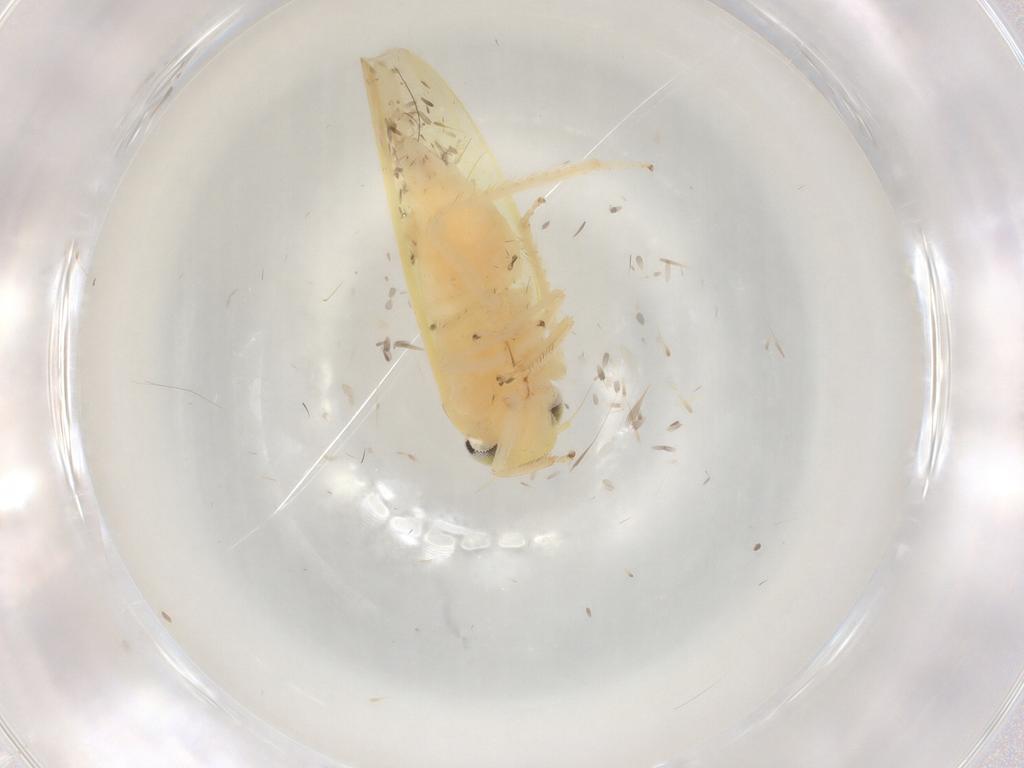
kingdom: Animalia
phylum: Arthropoda
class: Insecta
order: Hemiptera
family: Cicadellidae
